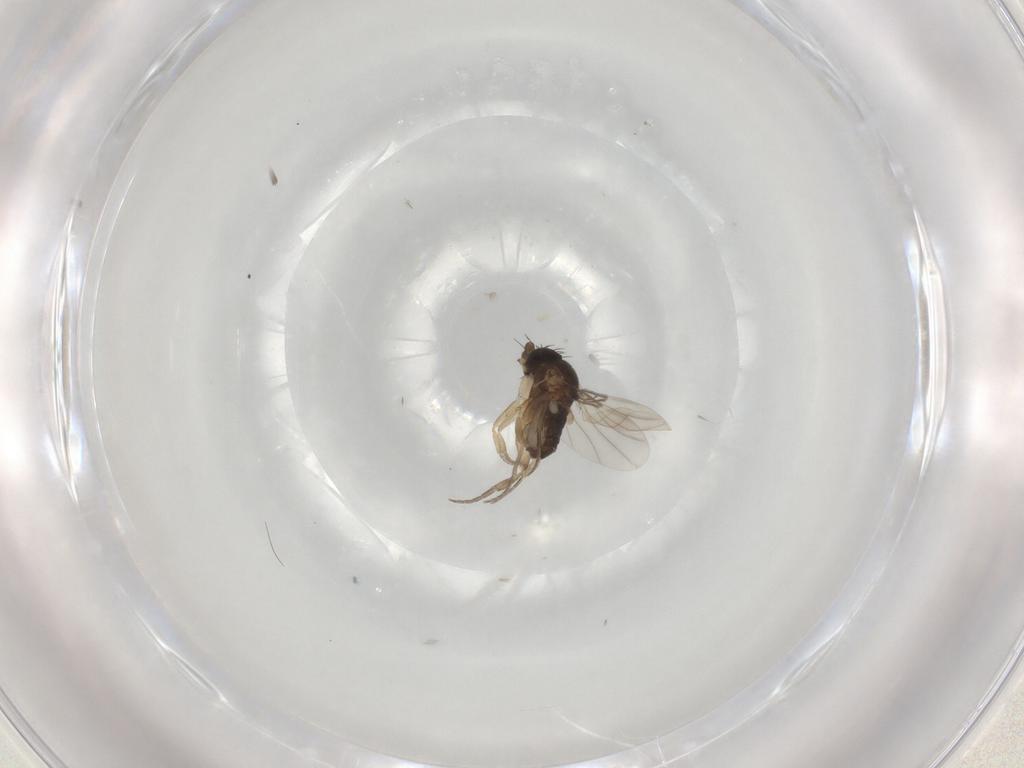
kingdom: Animalia
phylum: Arthropoda
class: Insecta
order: Diptera
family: Phoridae
